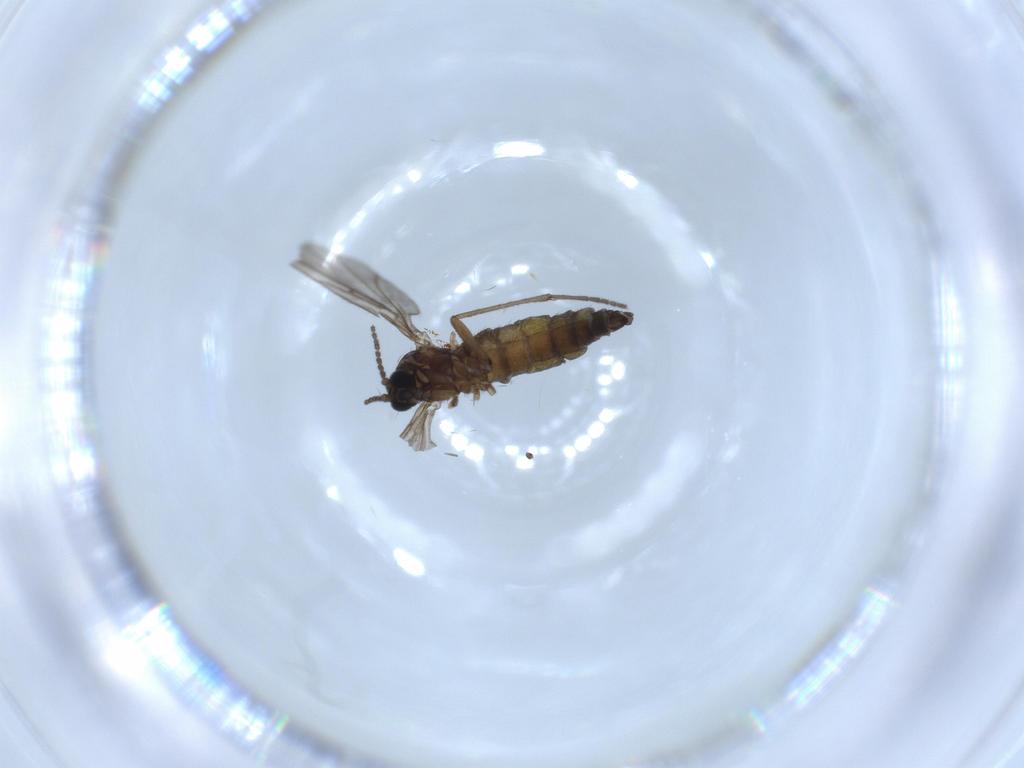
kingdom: Animalia
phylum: Arthropoda
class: Insecta
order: Diptera
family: Sciaridae
